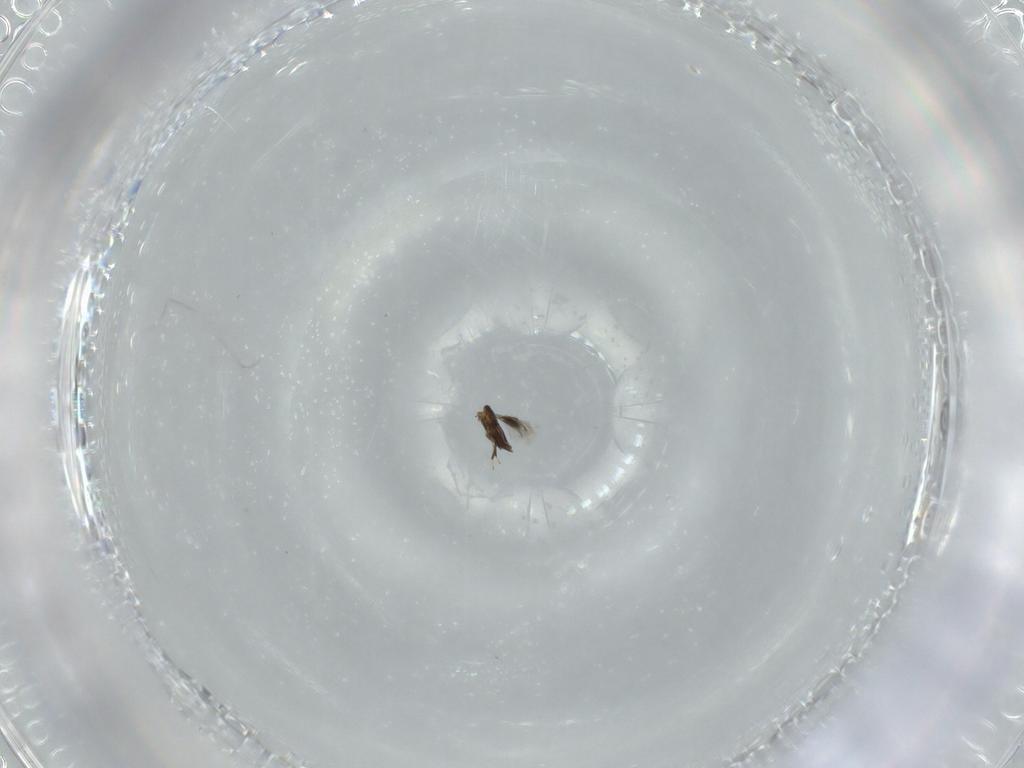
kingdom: Animalia
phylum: Arthropoda
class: Insecta
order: Hymenoptera
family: Signiphoridae
